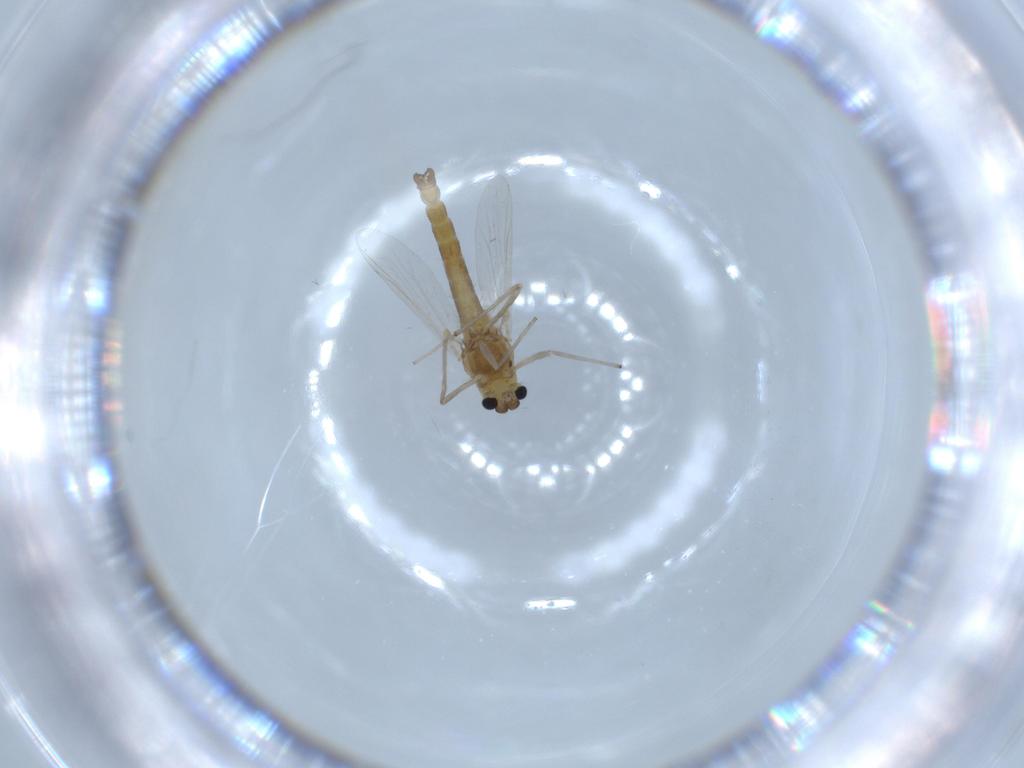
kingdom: Animalia
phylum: Arthropoda
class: Insecta
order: Diptera
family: Chironomidae
